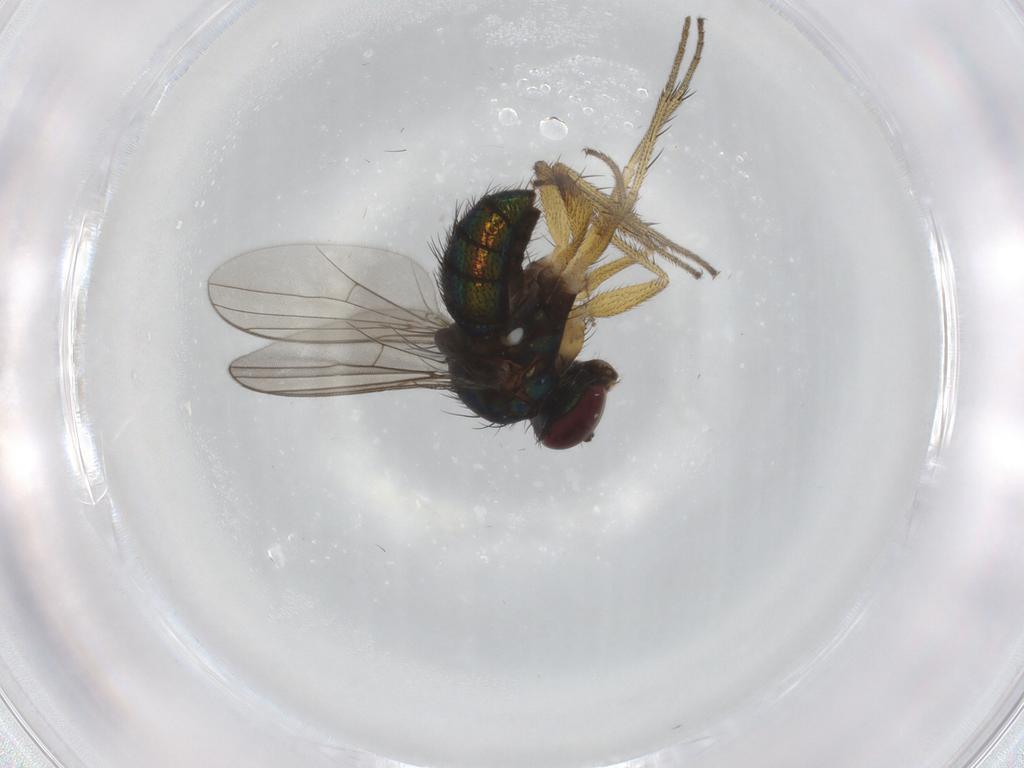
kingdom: Animalia
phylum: Arthropoda
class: Insecta
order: Diptera
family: Dolichopodidae
